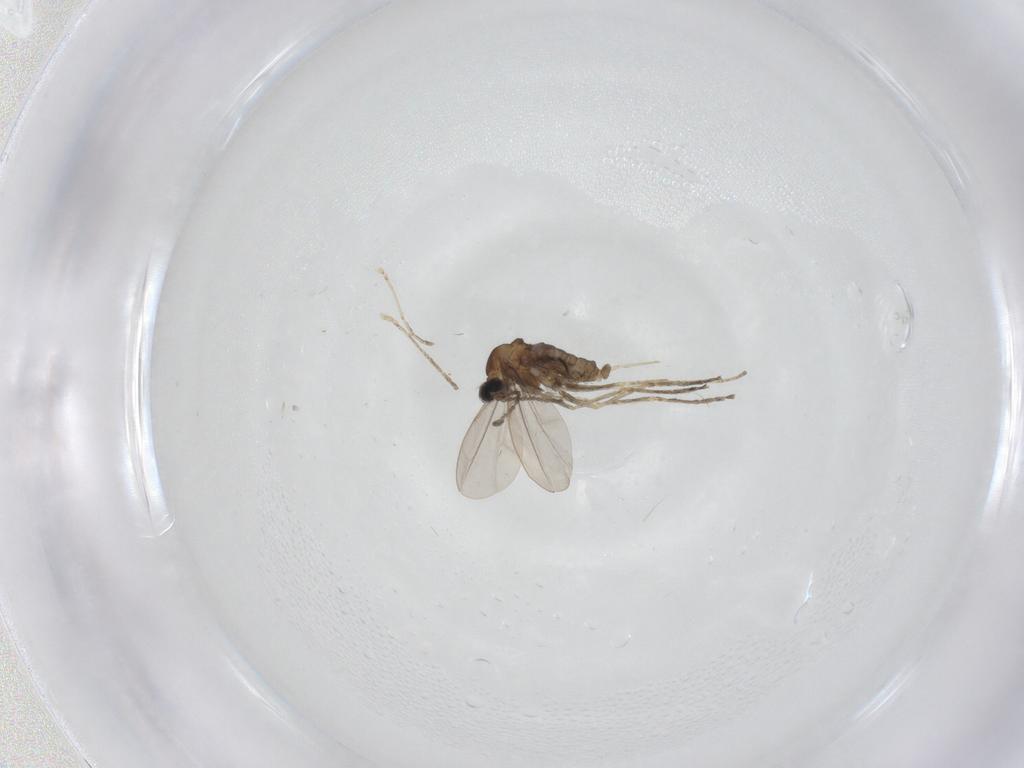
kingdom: Animalia
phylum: Arthropoda
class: Insecta
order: Diptera
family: Cecidomyiidae
